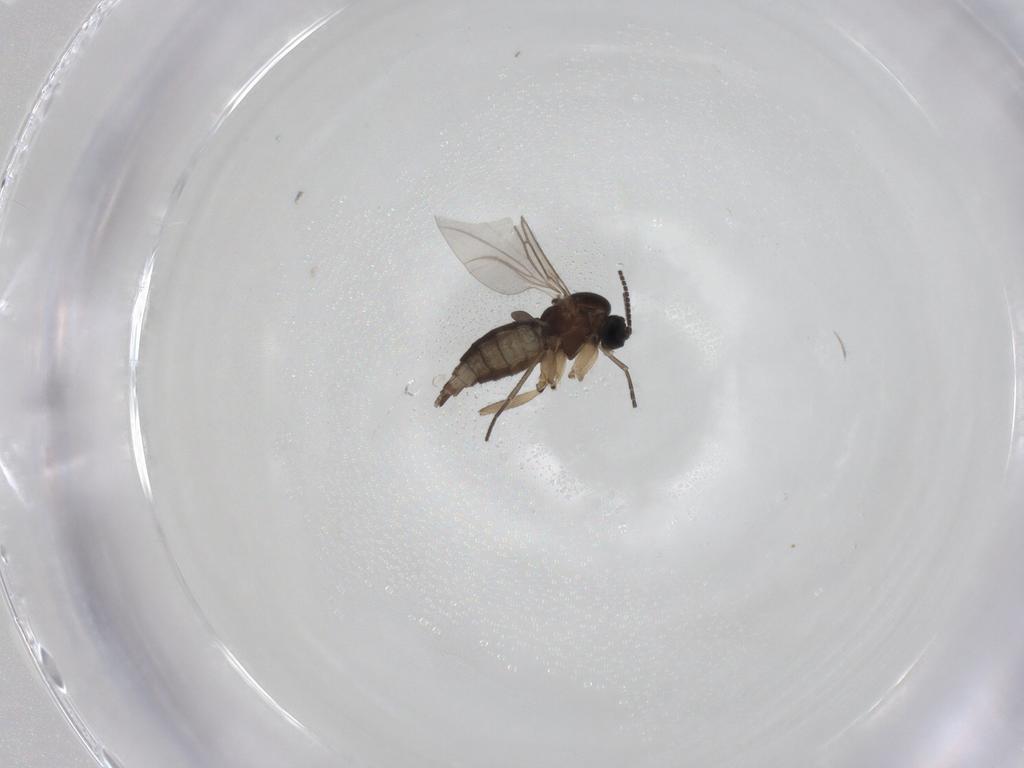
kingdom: Animalia
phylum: Arthropoda
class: Insecta
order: Diptera
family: Sciaridae
